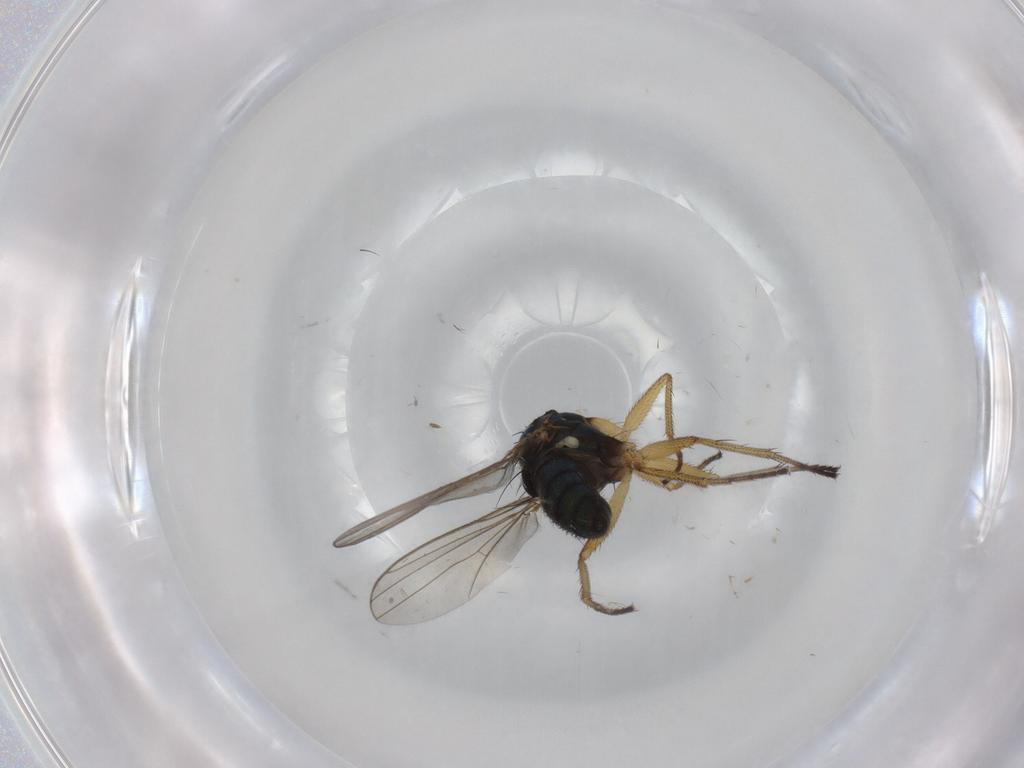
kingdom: Animalia
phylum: Arthropoda
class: Insecta
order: Diptera
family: Dolichopodidae
